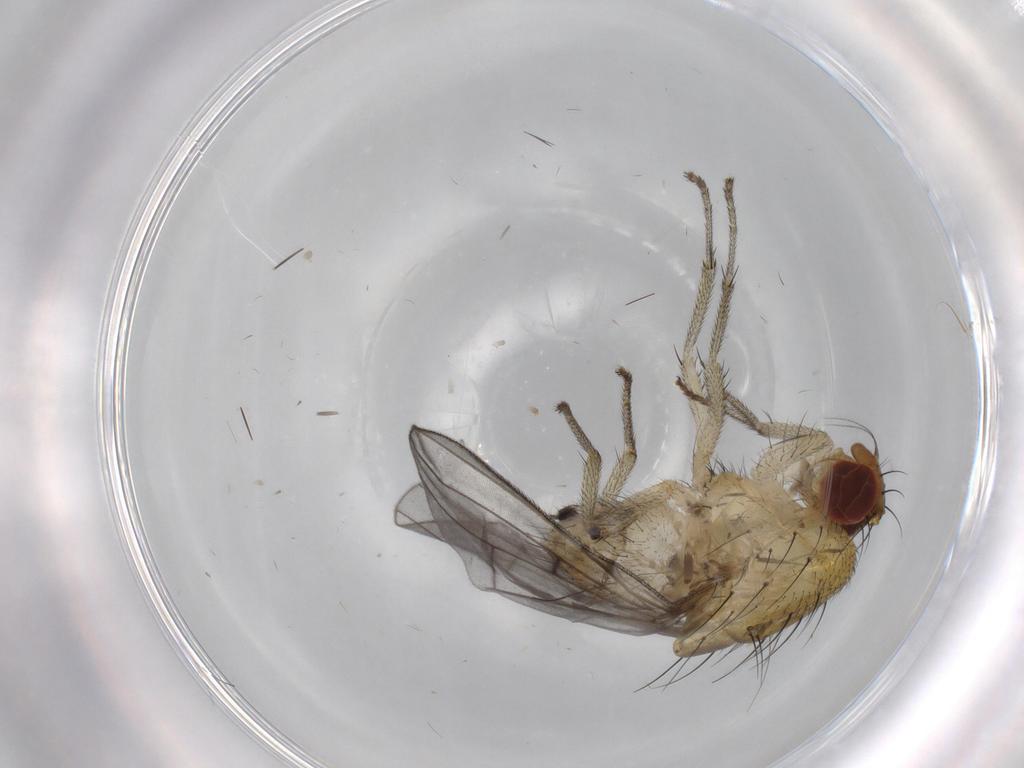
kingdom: Animalia
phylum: Arthropoda
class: Insecta
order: Diptera
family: Lauxaniidae
